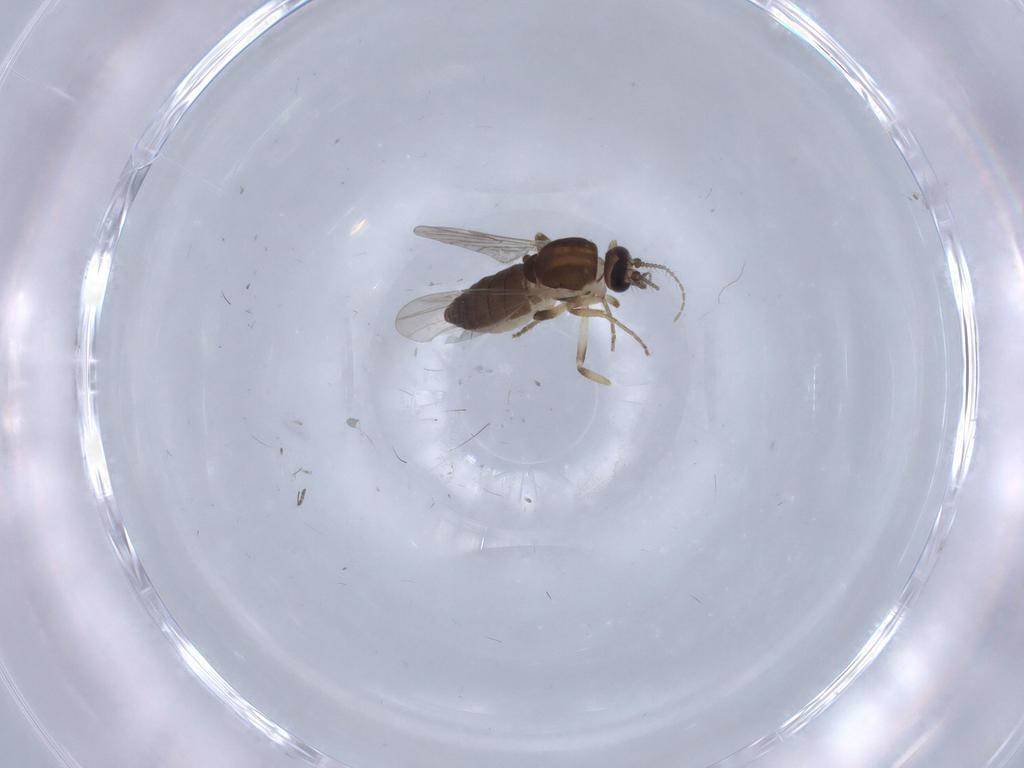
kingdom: Animalia
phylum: Arthropoda
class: Insecta
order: Diptera
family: Ceratopogonidae
